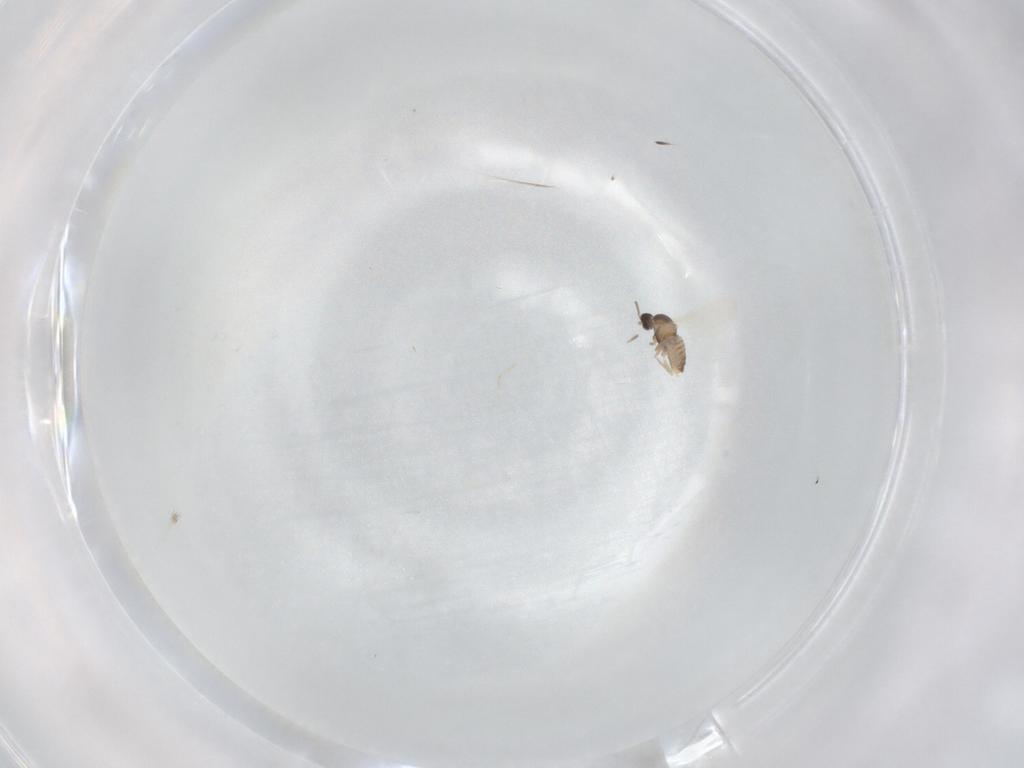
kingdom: Animalia
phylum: Arthropoda
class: Insecta
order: Diptera
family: Cecidomyiidae
